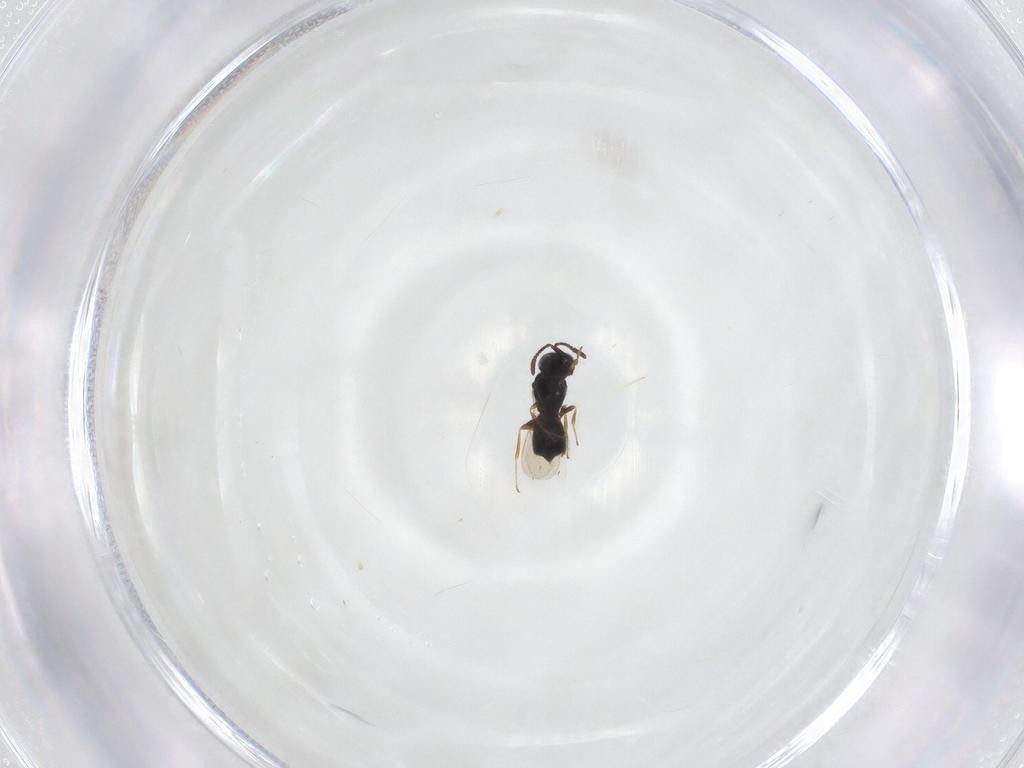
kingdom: Animalia
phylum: Arthropoda
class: Insecta
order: Hymenoptera
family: Scelionidae
